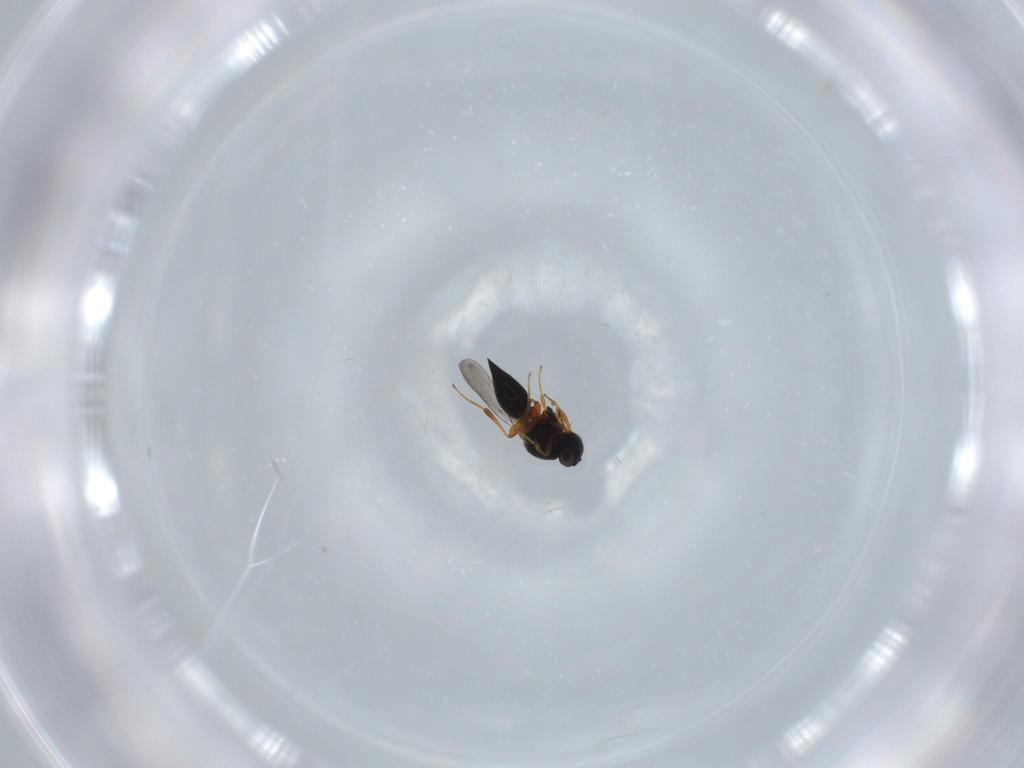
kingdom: Animalia
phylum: Arthropoda
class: Insecta
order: Hymenoptera
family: Platygastridae
